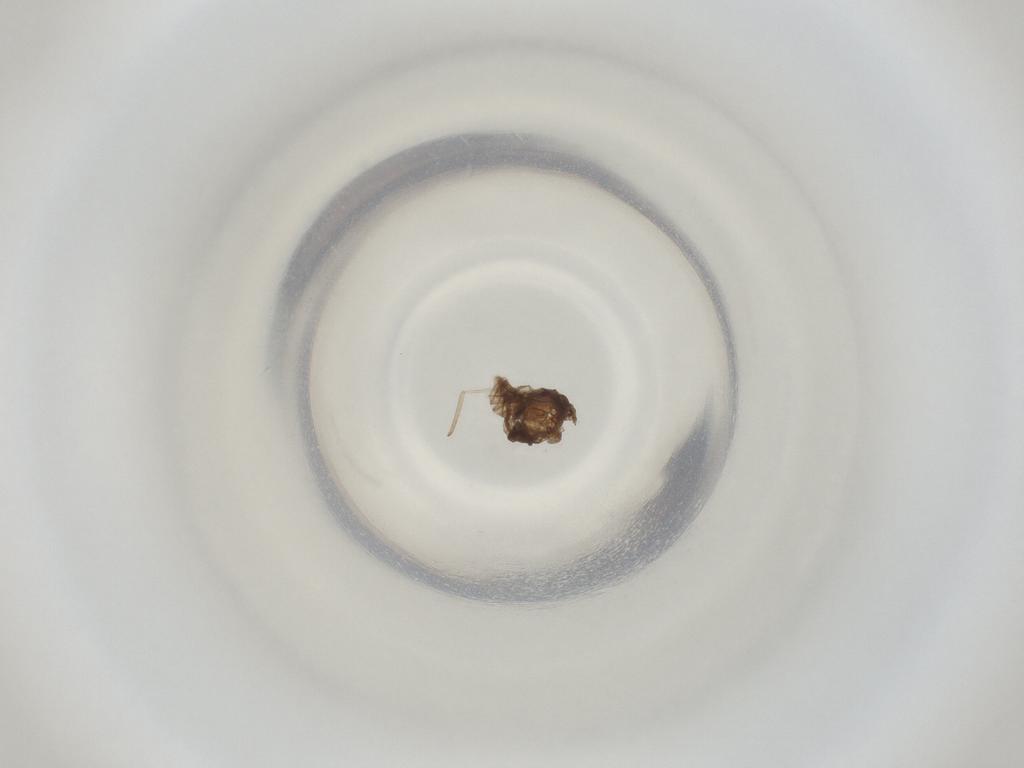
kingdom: Animalia
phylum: Arthropoda
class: Insecta
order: Diptera
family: Cecidomyiidae
